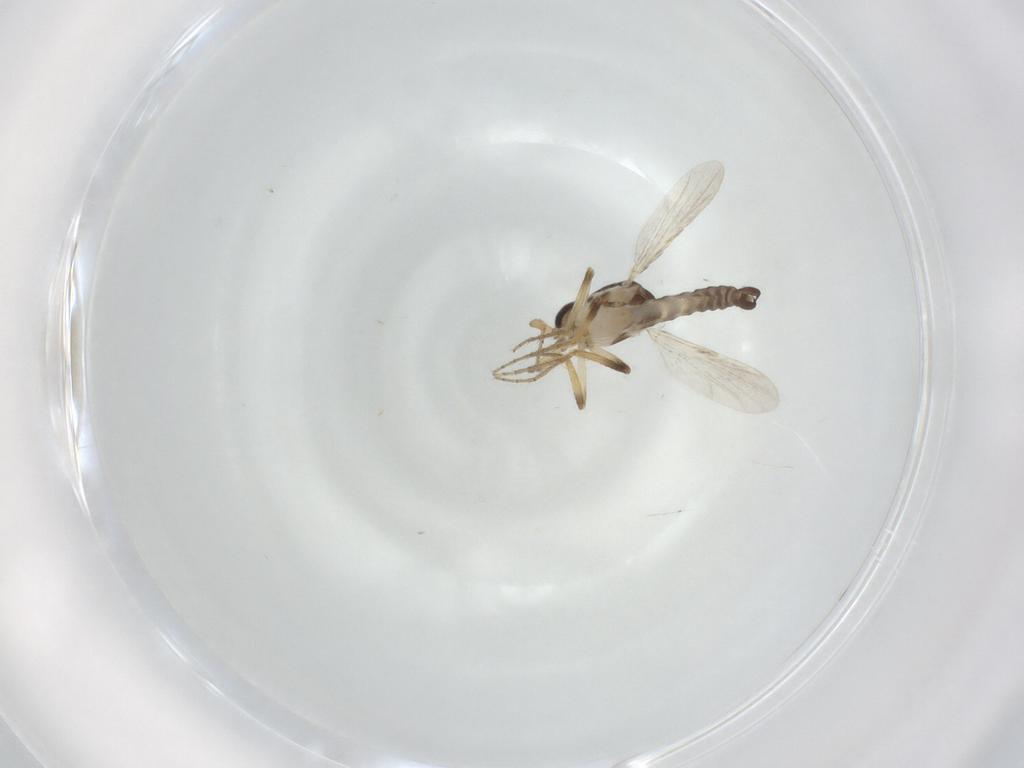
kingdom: Animalia
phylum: Arthropoda
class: Insecta
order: Diptera
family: Ceratopogonidae
